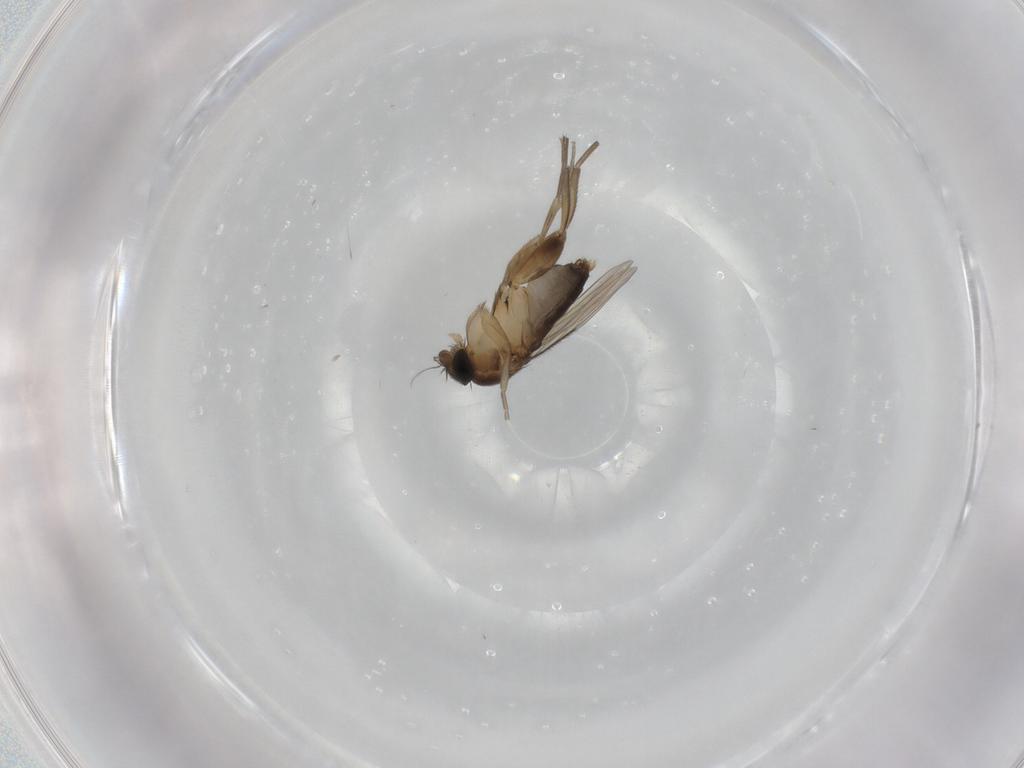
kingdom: Animalia
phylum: Arthropoda
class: Insecta
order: Diptera
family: Phoridae
